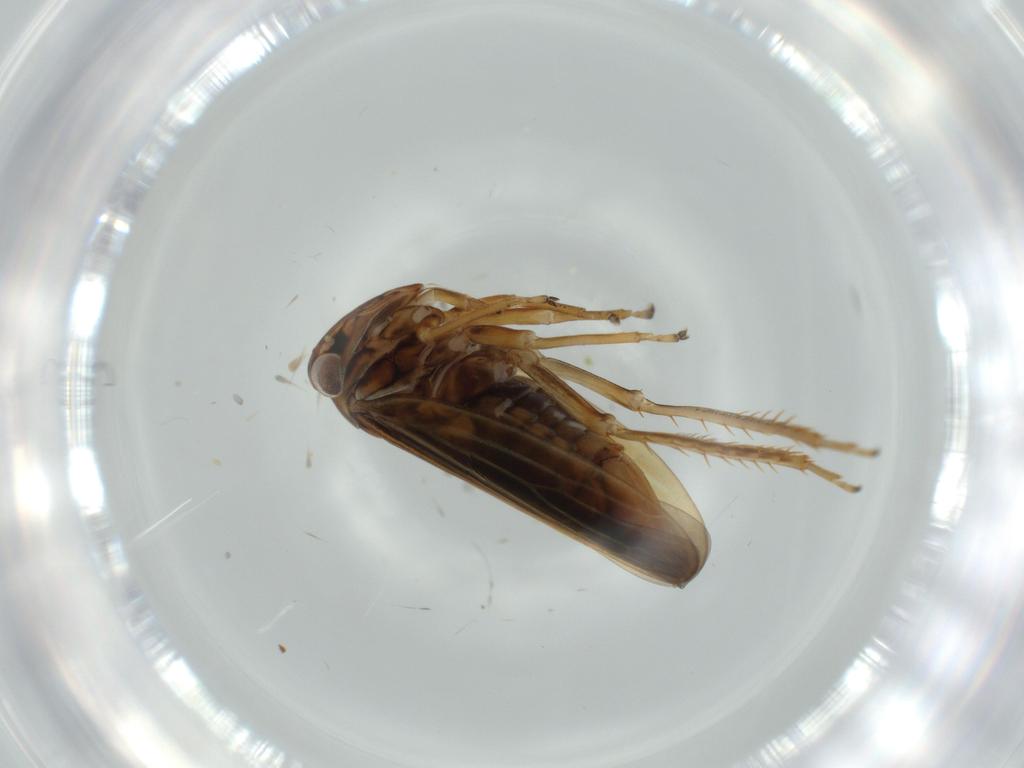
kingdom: Animalia
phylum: Arthropoda
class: Insecta
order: Hemiptera
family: Cicadellidae
